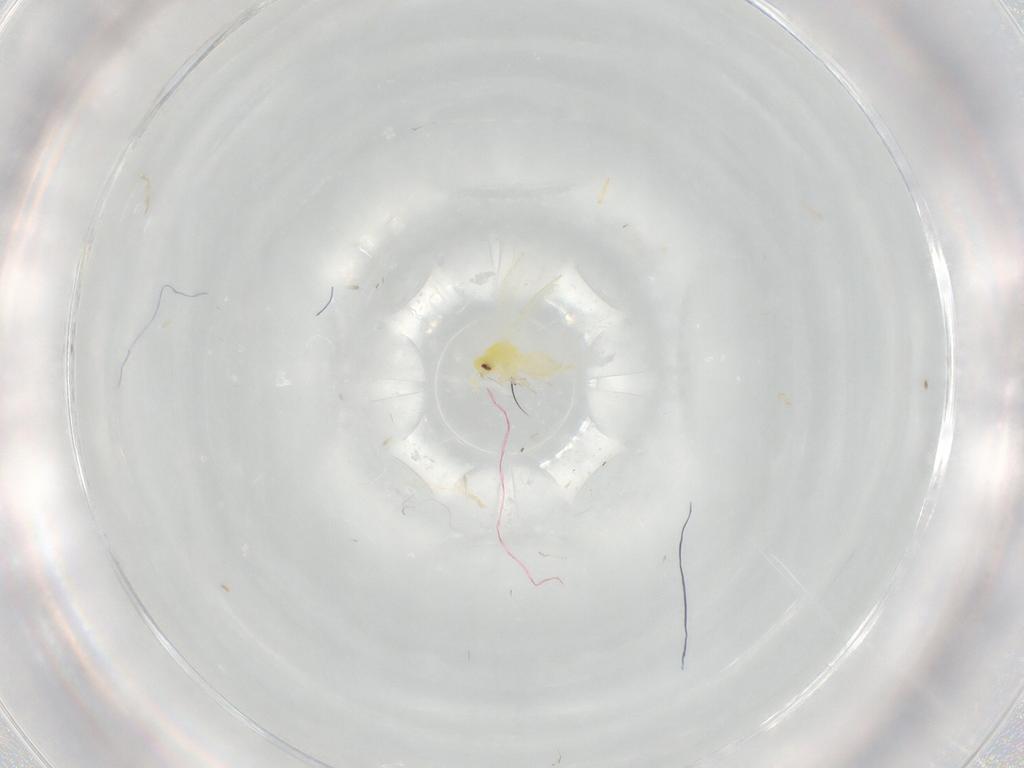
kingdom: Animalia
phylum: Arthropoda
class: Insecta
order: Hemiptera
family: Aleyrodidae
